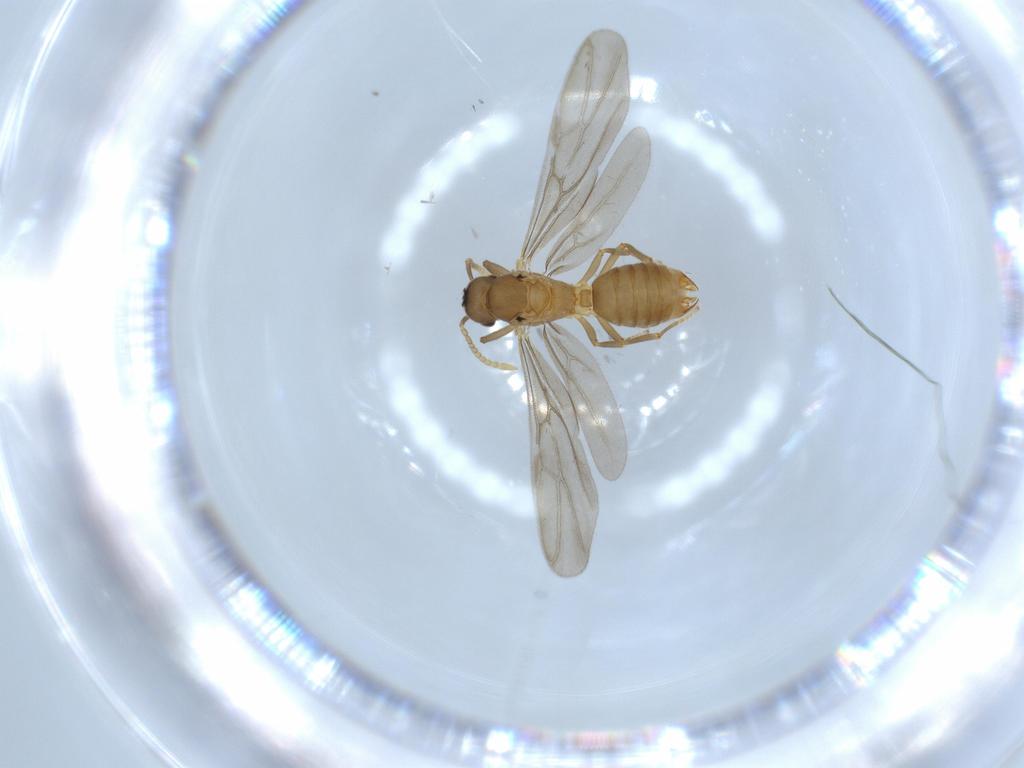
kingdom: Animalia
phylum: Arthropoda
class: Insecta
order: Hymenoptera
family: Formicidae
